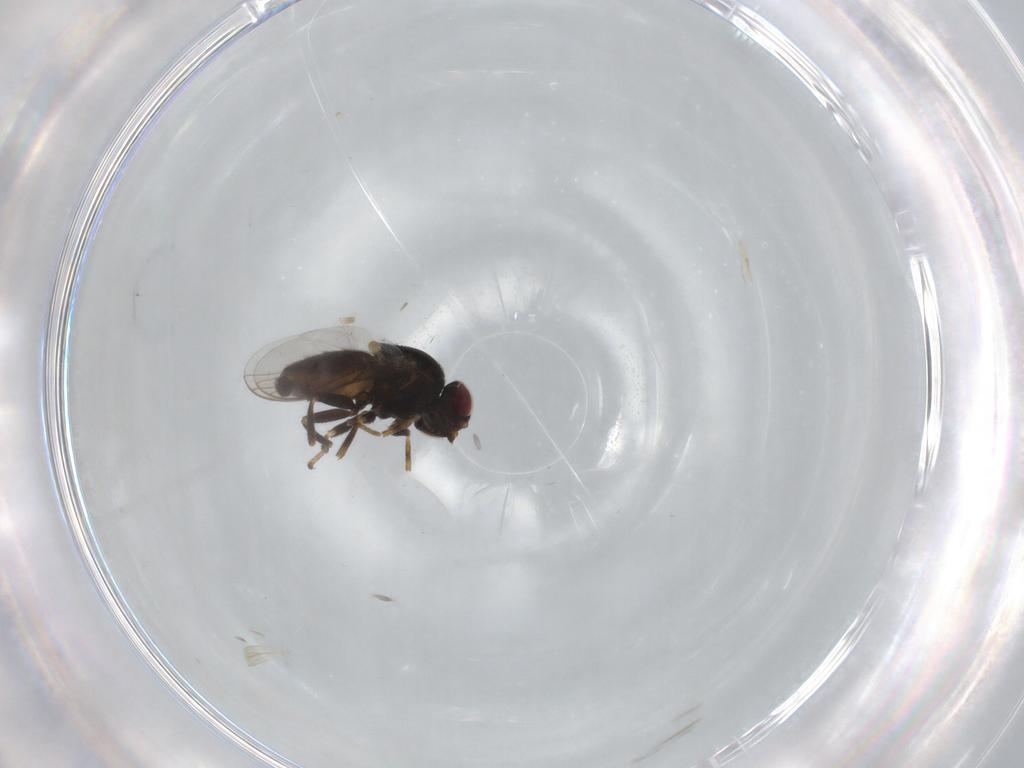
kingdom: Animalia
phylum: Arthropoda
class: Insecta
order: Diptera
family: Chloropidae
